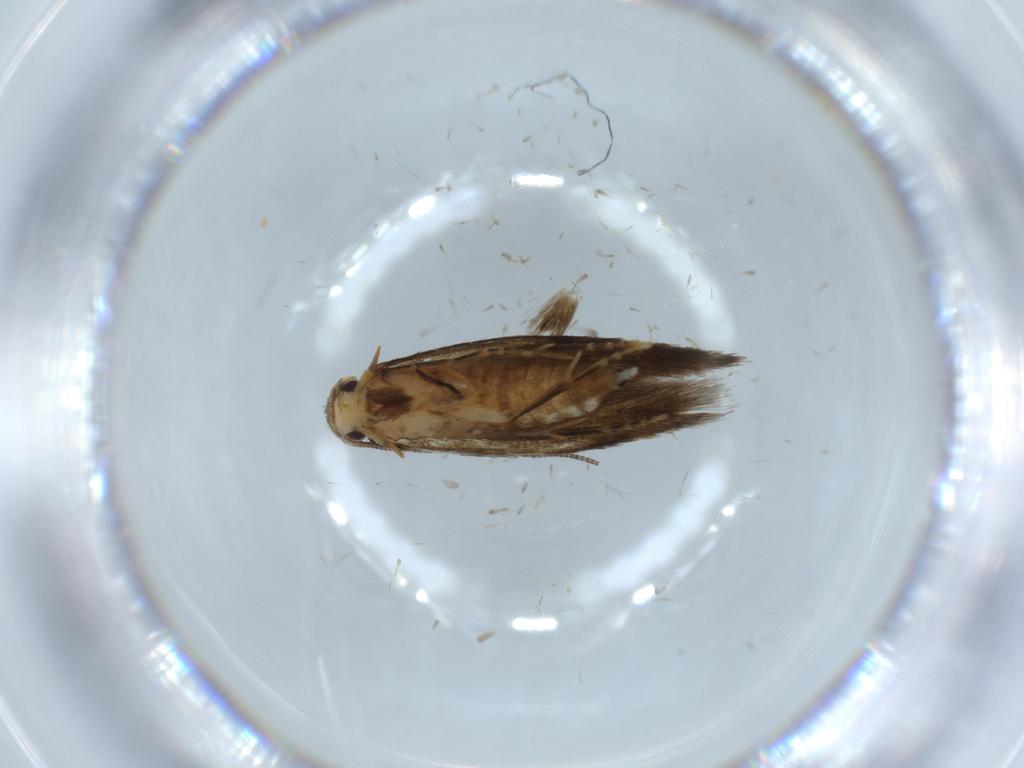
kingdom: Animalia
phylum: Arthropoda
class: Insecta
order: Lepidoptera
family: Tineidae
